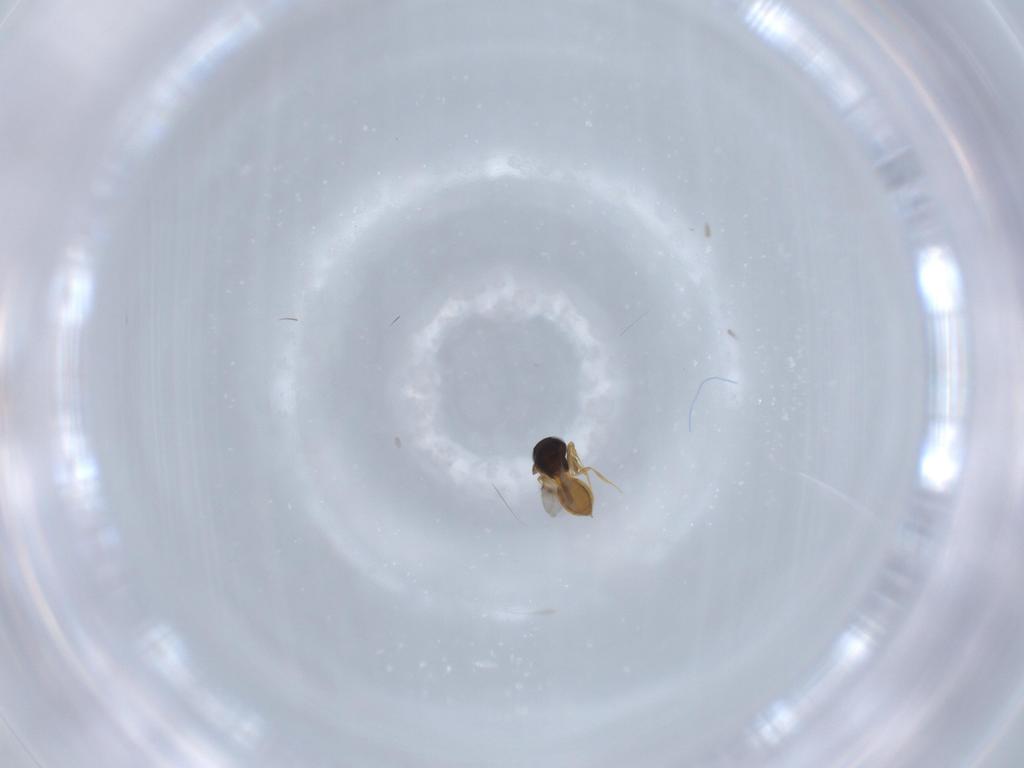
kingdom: Animalia
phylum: Arthropoda
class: Insecta
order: Hymenoptera
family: Scelionidae
